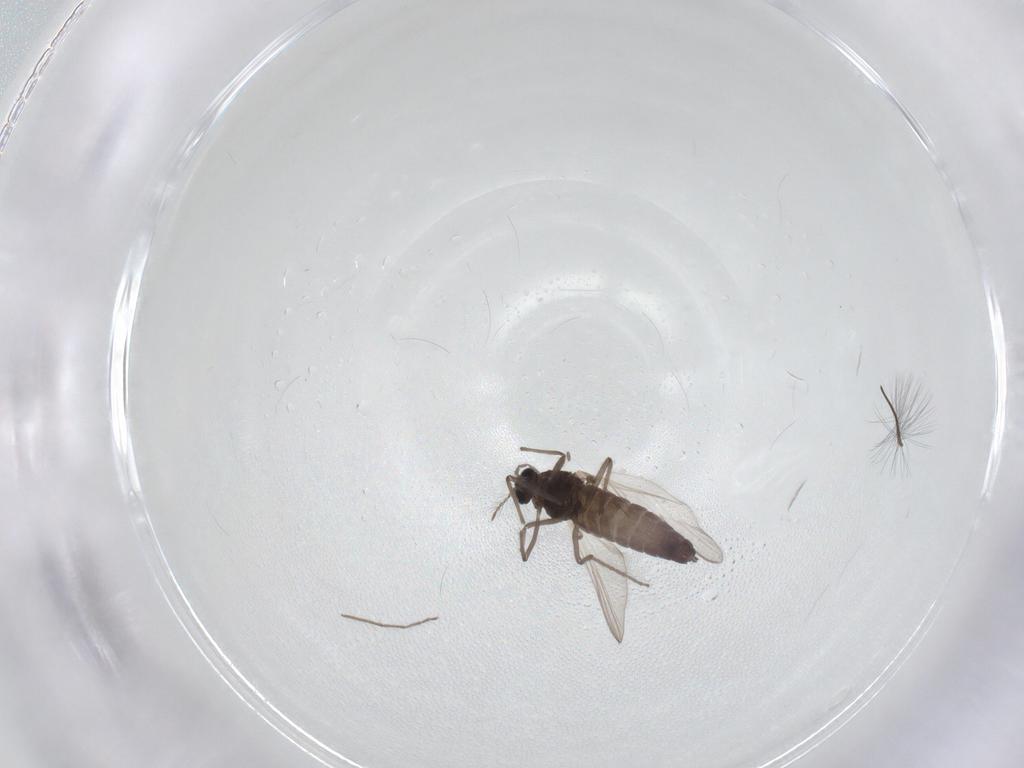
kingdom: Animalia
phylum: Arthropoda
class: Insecta
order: Diptera
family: Chironomidae
